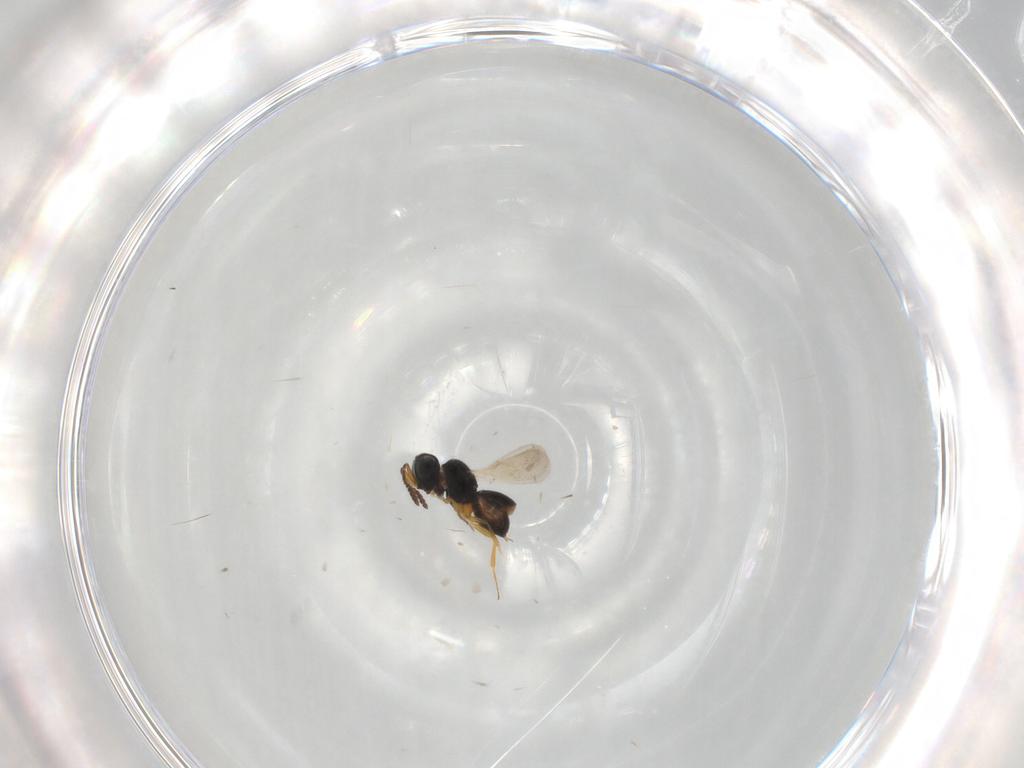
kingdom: Animalia
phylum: Arthropoda
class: Insecta
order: Hymenoptera
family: Scelionidae
